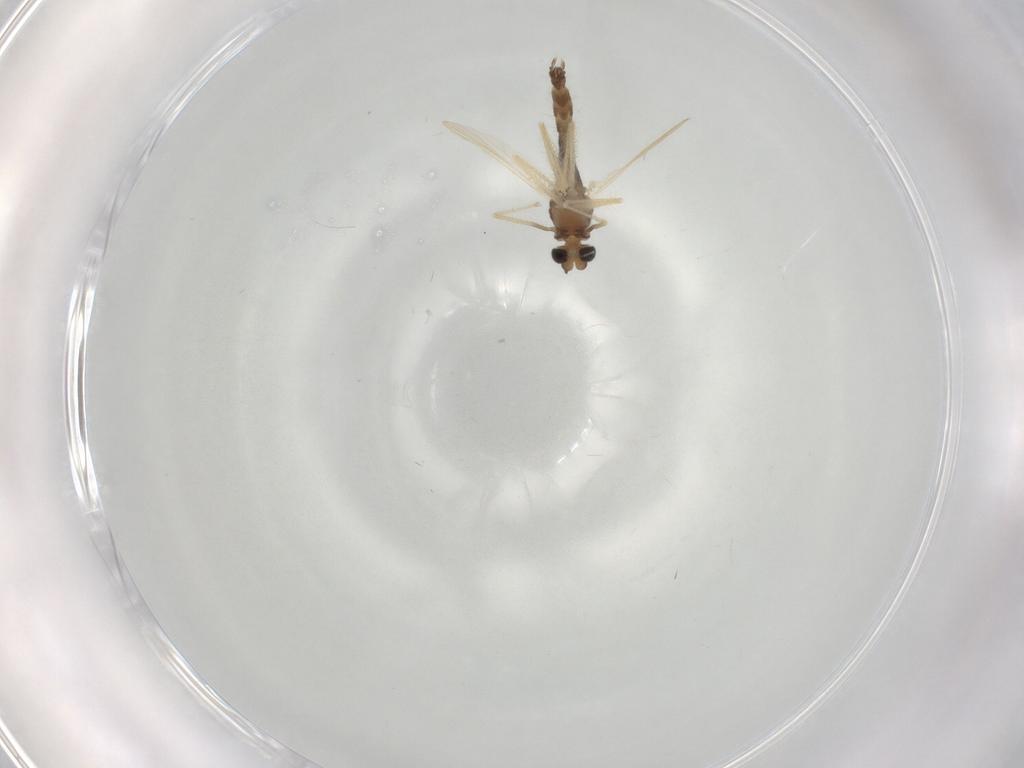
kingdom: Animalia
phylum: Arthropoda
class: Insecta
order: Diptera
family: Chironomidae
